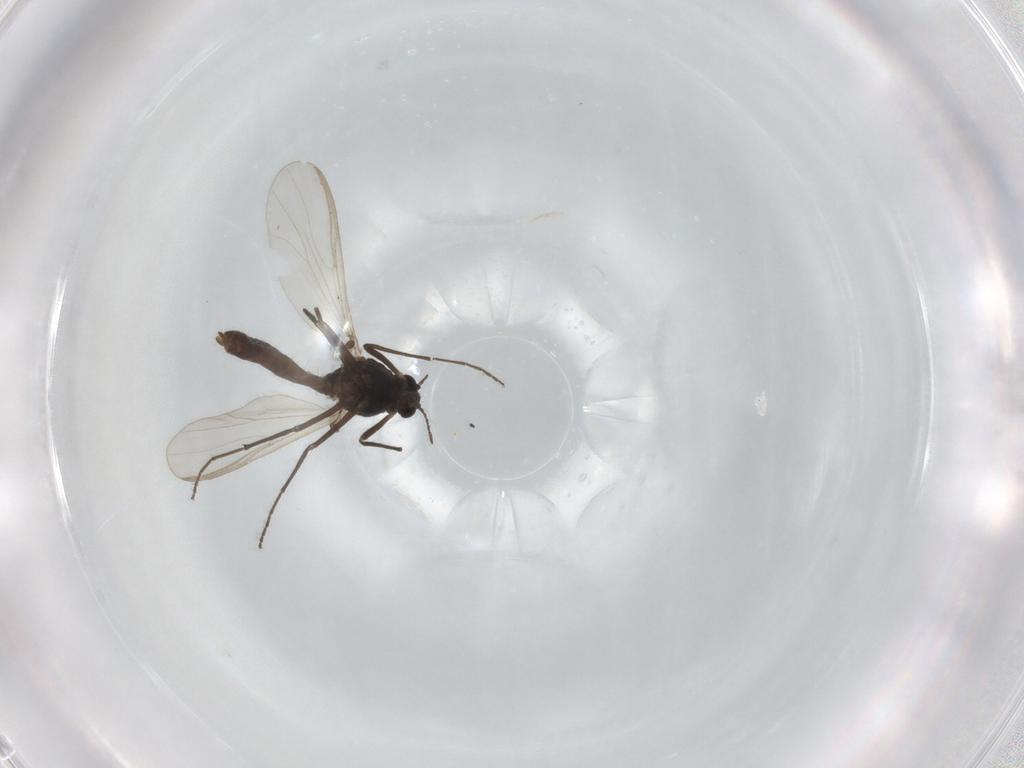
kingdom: Animalia
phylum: Arthropoda
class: Insecta
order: Diptera
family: Chironomidae
